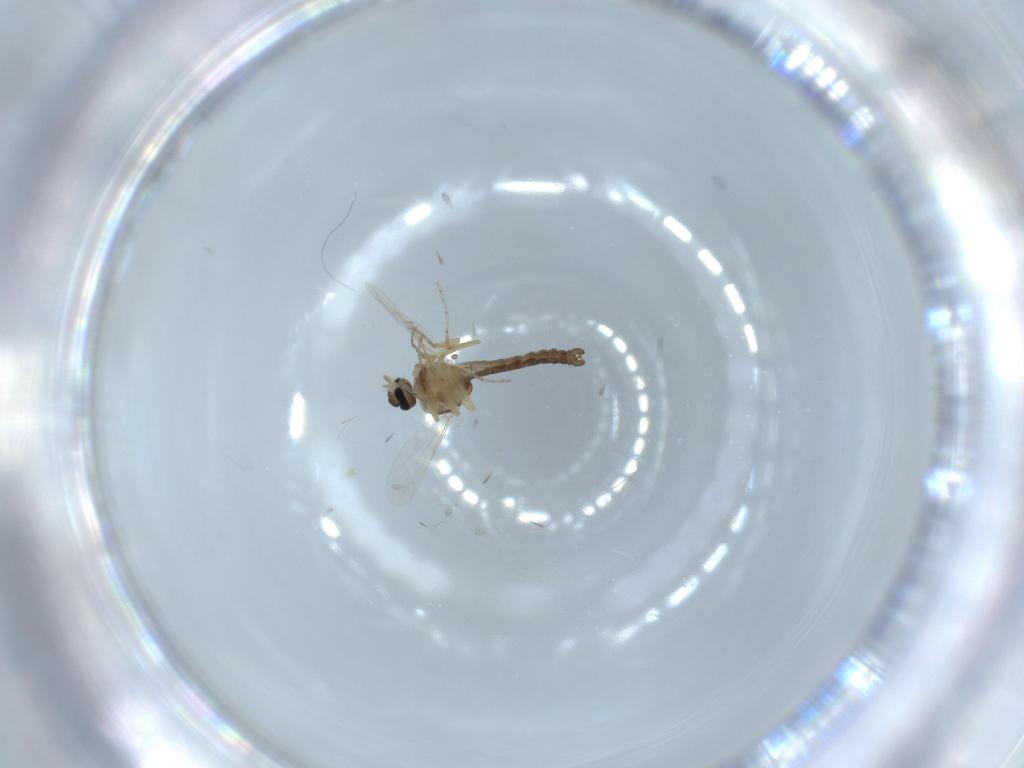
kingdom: Animalia
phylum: Arthropoda
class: Insecta
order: Diptera
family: Ceratopogonidae
